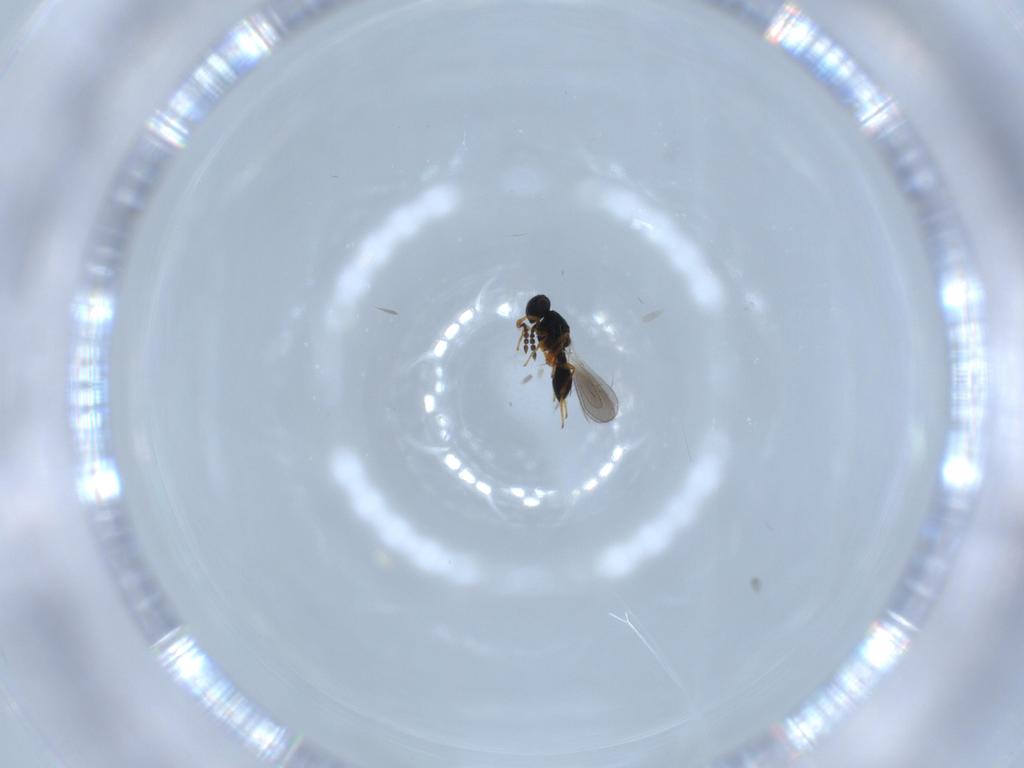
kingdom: Animalia
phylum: Arthropoda
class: Insecta
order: Hymenoptera
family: Platygastridae
